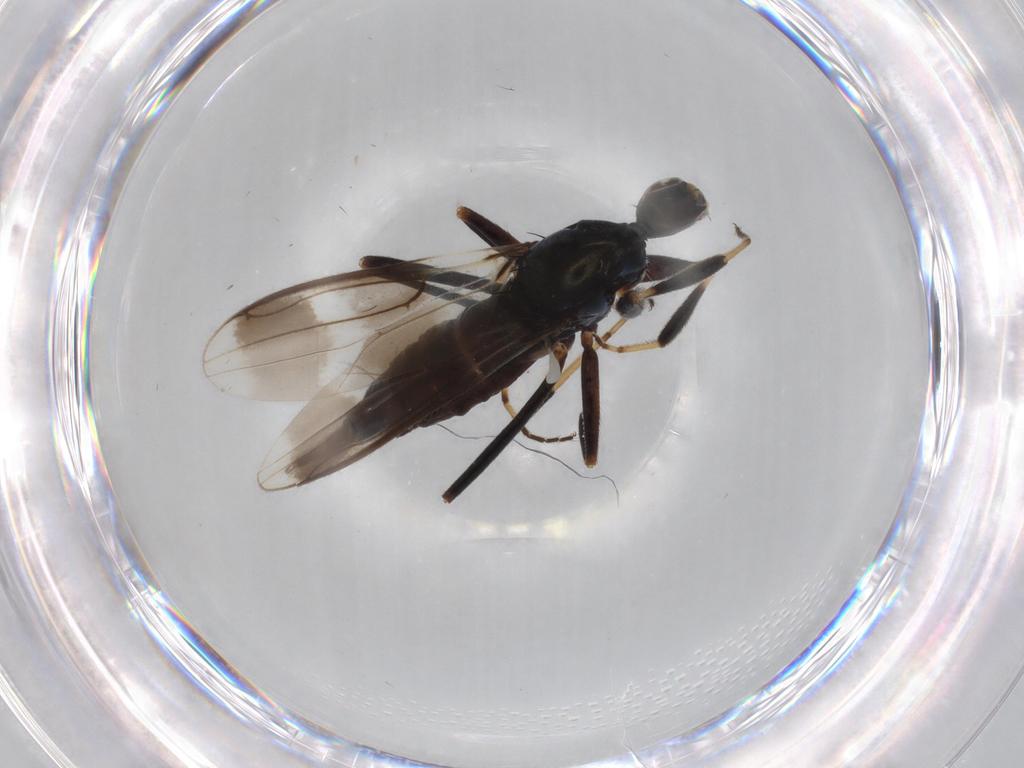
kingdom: Animalia
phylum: Arthropoda
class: Insecta
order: Diptera
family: Hybotidae
